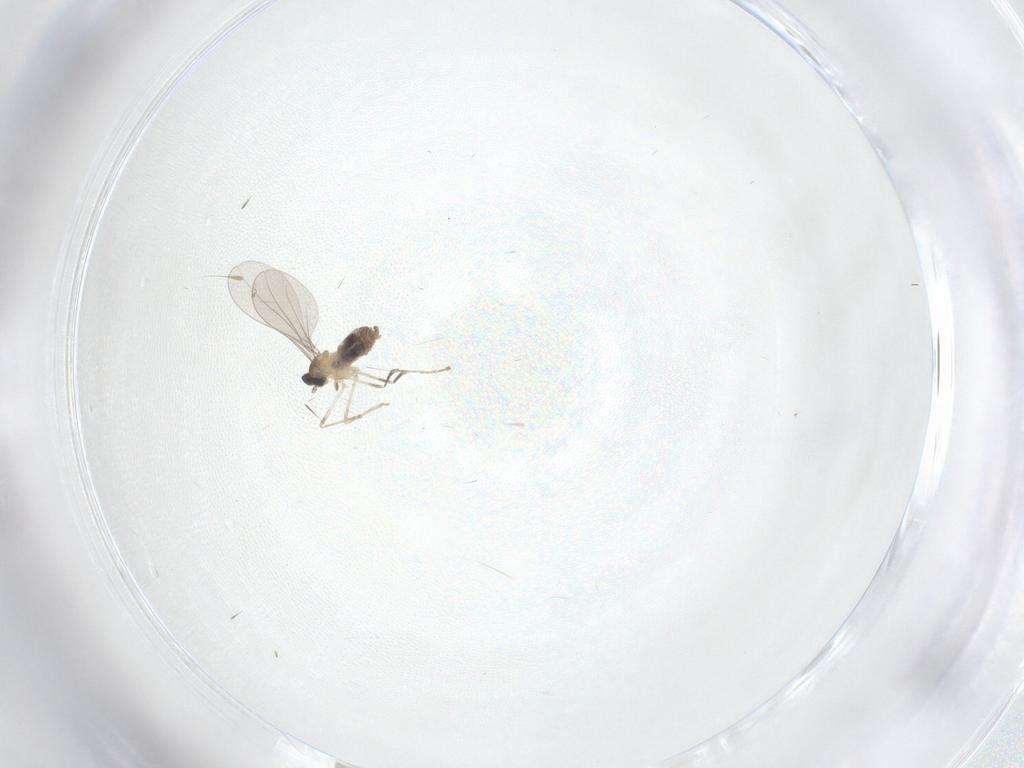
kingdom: Animalia
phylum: Arthropoda
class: Insecta
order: Diptera
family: Cecidomyiidae
